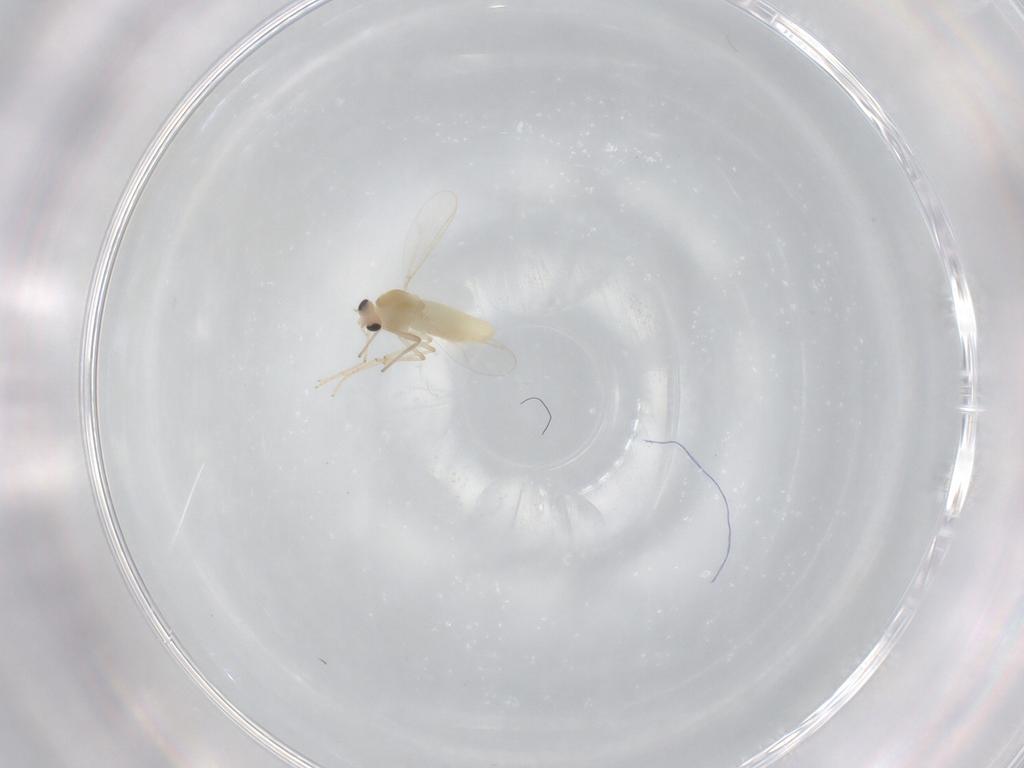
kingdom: Animalia
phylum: Arthropoda
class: Insecta
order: Diptera
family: Chironomidae
